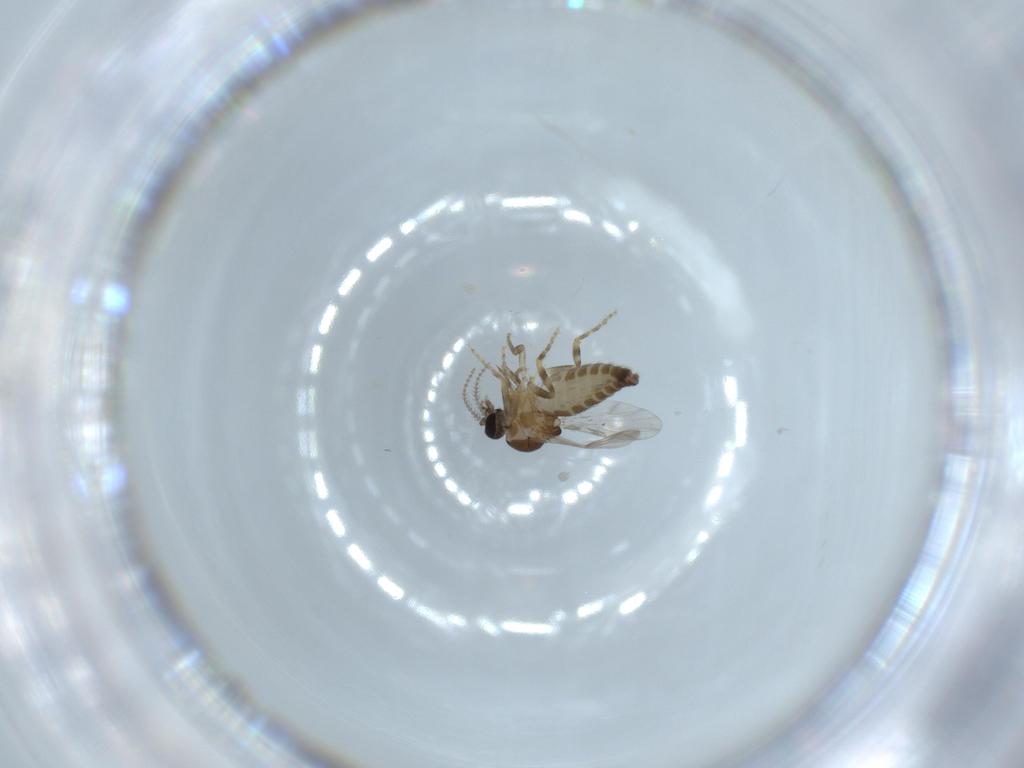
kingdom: Animalia
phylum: Arthropoda
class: Insecta
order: Diptera
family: Ceratopogonidae
